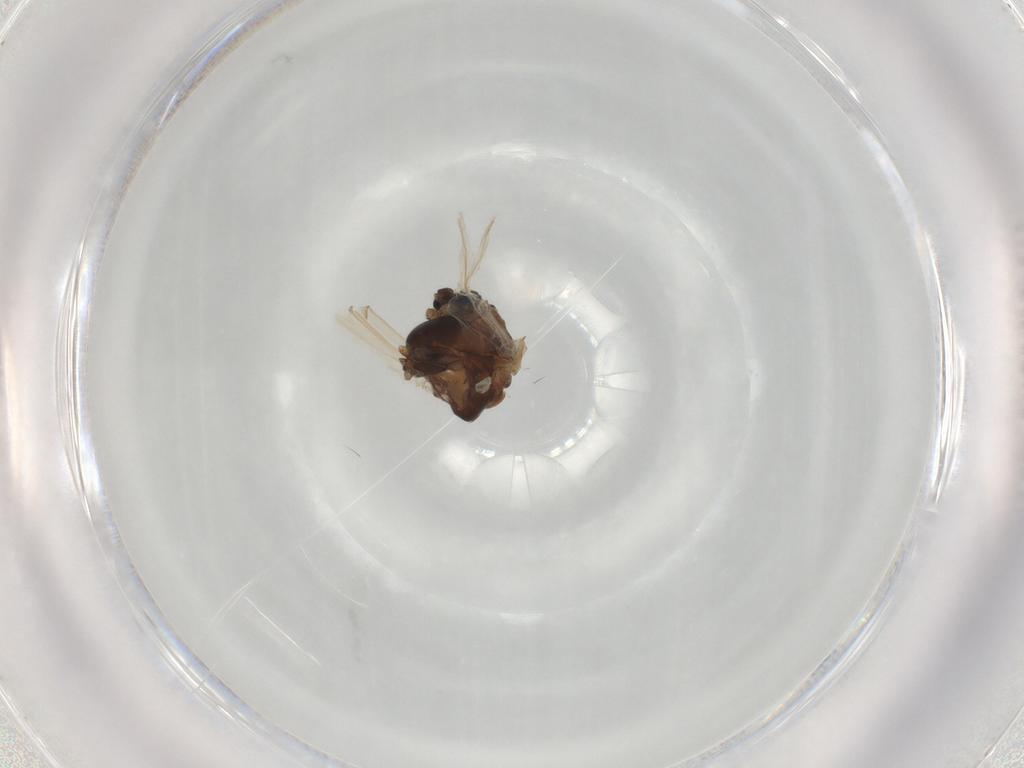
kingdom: Animalia
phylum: Arthropoda
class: Insecta
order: Diptera
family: Chironomidae
